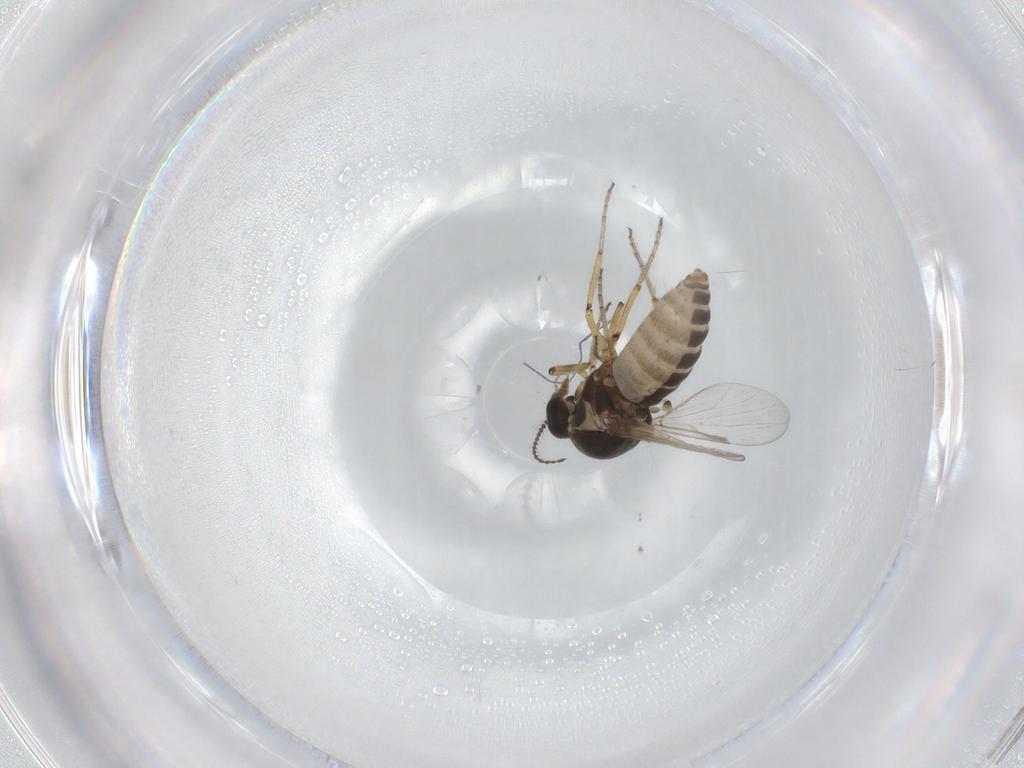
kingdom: Animalia
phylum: Arthropoda
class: Insecta
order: Diptera
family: Ceratopogonidae
